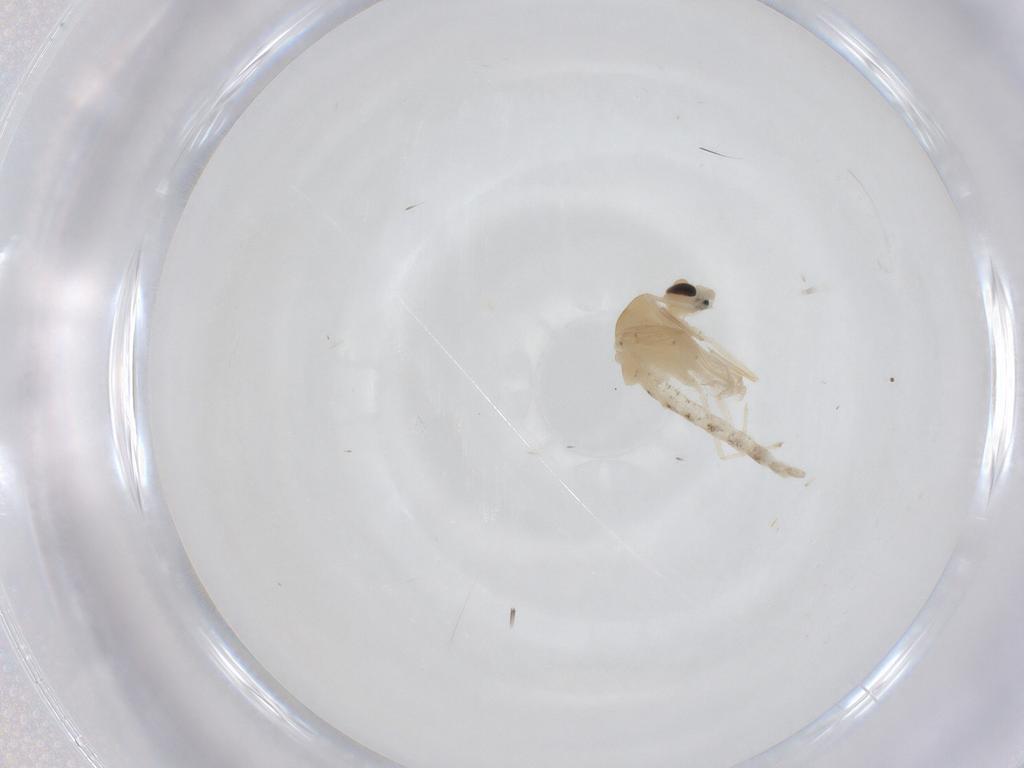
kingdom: Animalia
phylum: Arthropoda
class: Insecta
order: Diptera
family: Chironomidae
